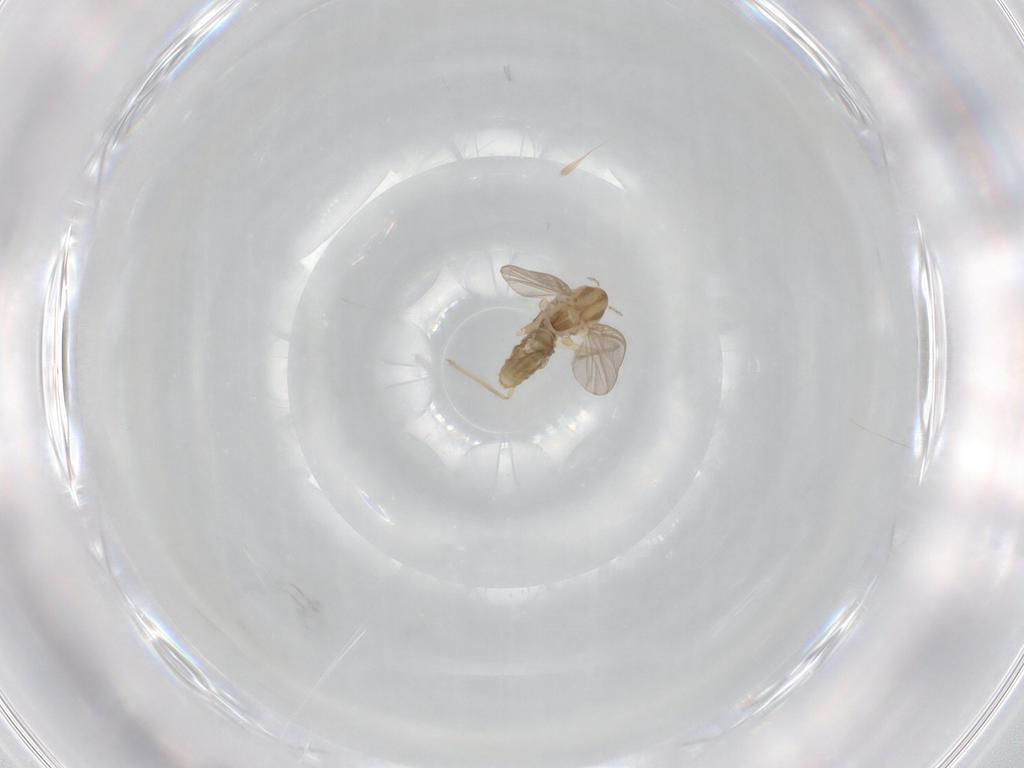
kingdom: Animalia
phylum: Arthropoda
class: Insecta
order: Diptera
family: Chironomidae
